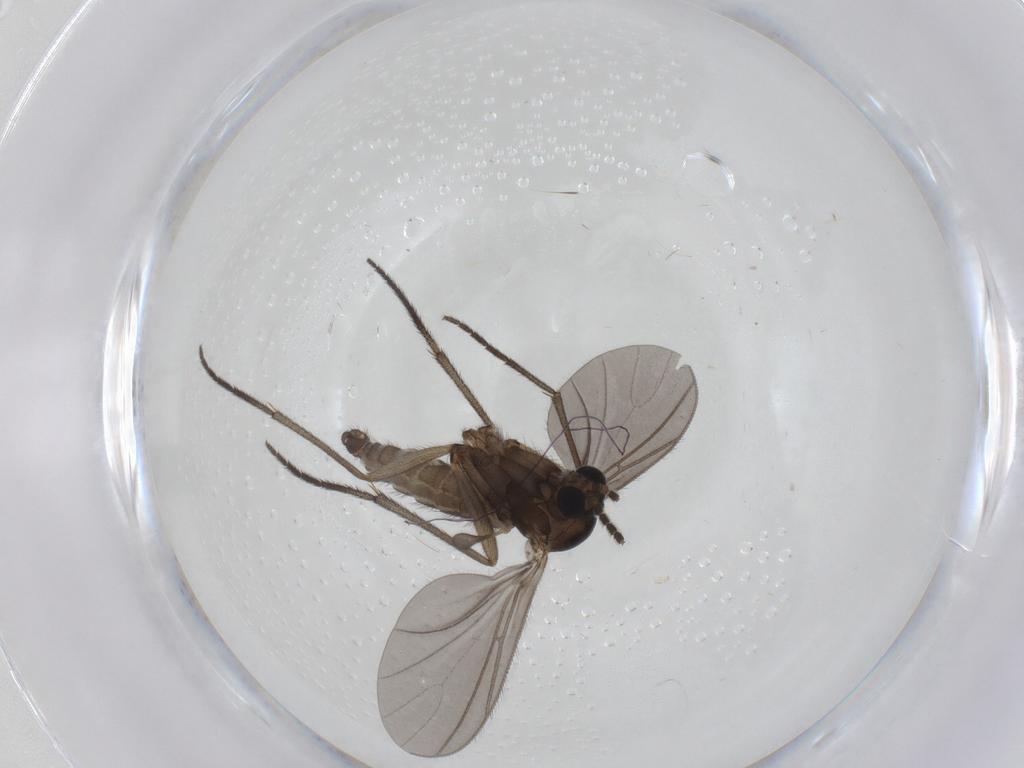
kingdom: Animalia
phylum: Arthropoda
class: Insecta
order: Diptera
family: Sciaridae
